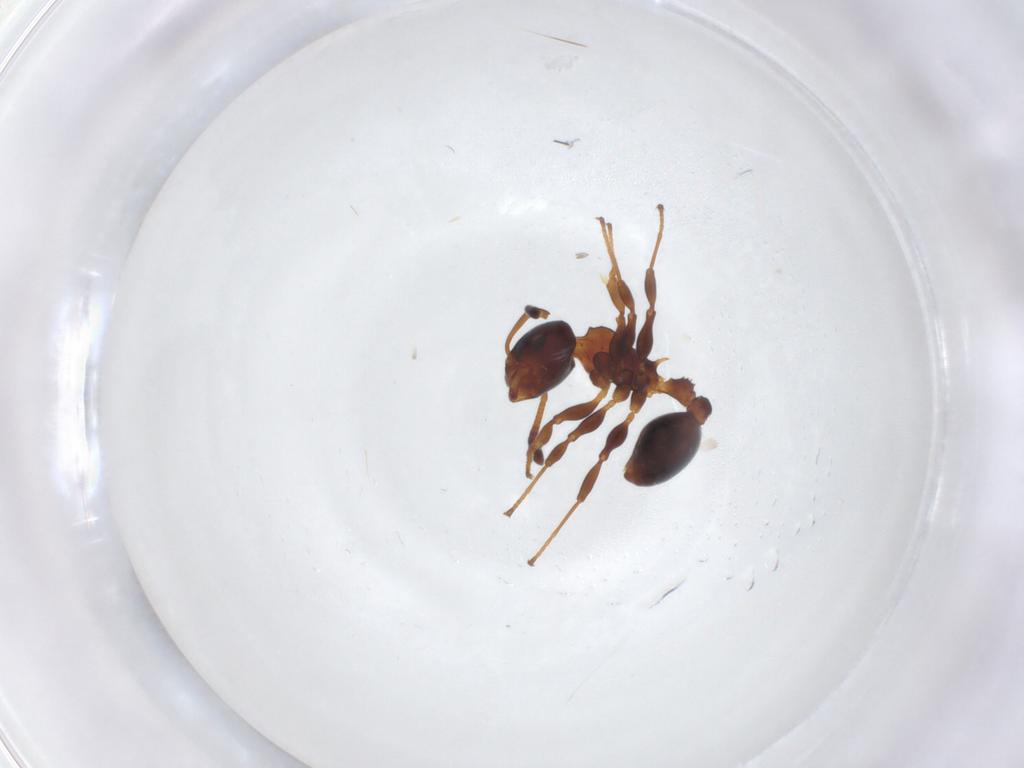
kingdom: Animalia
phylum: Arthropoda
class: Insecta
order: Hymenoptera
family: Formicidae
